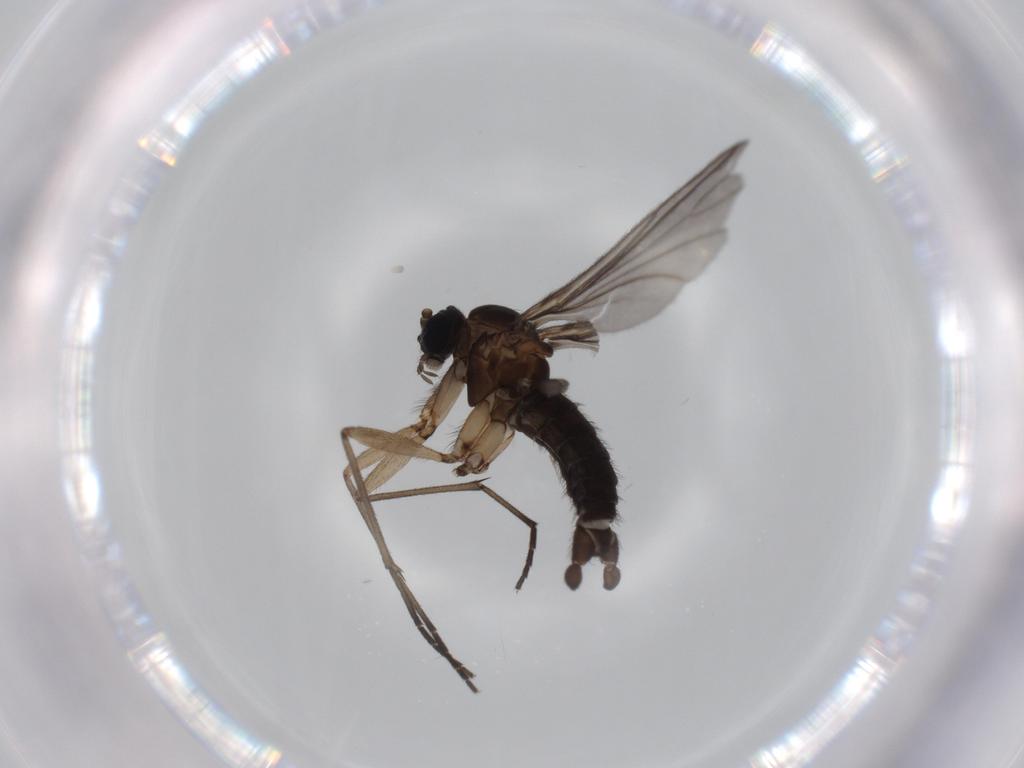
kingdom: Animalia
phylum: Arthropoda
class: Insecta
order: Diptera
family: Sciaridae
